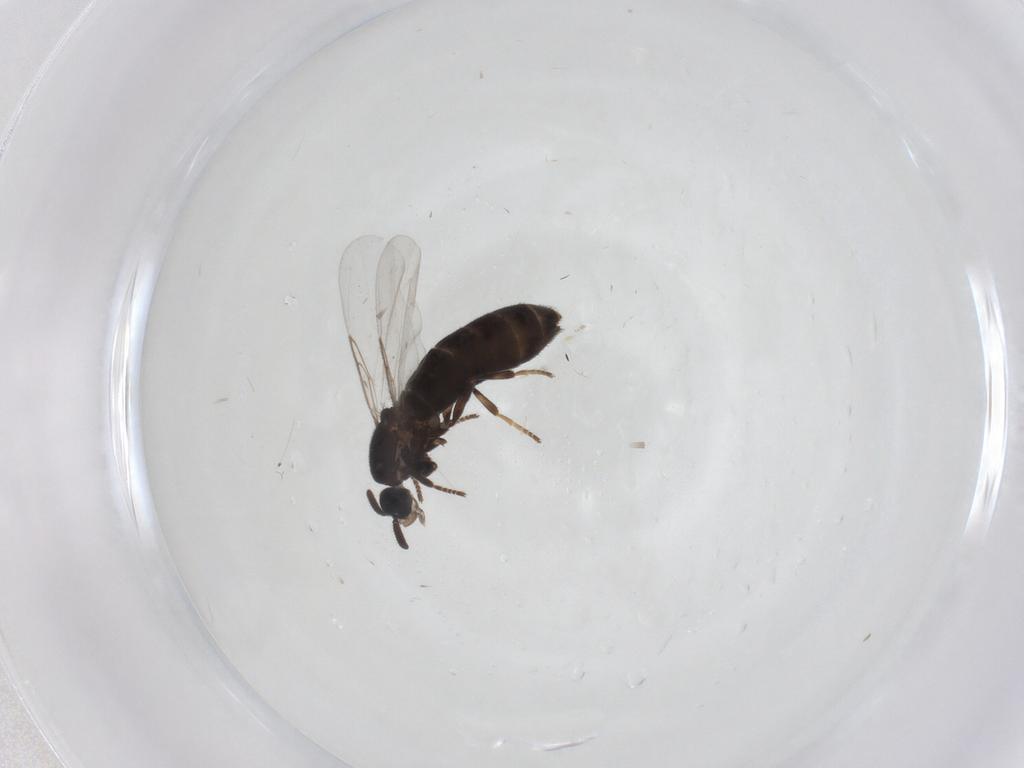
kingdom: Animalia
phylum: Arthropoda
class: Insecta
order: Diptera
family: Scatopsidae
